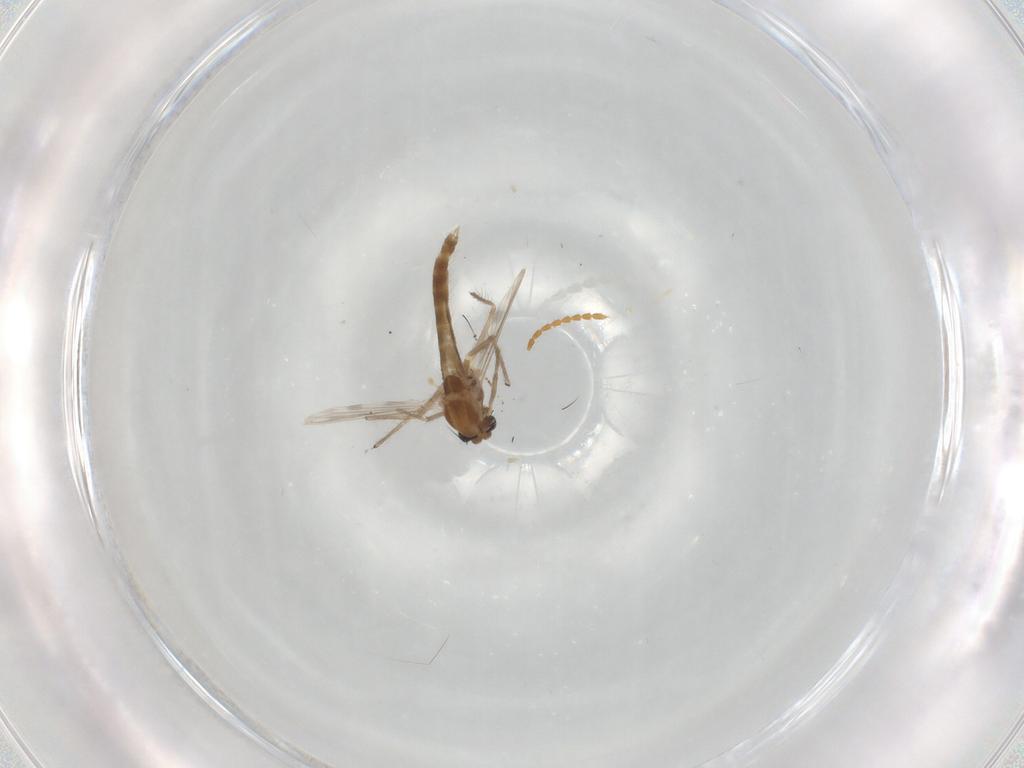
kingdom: Animalia
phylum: Arthropoda
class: Insecta
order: Diptera
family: Chironomidae
